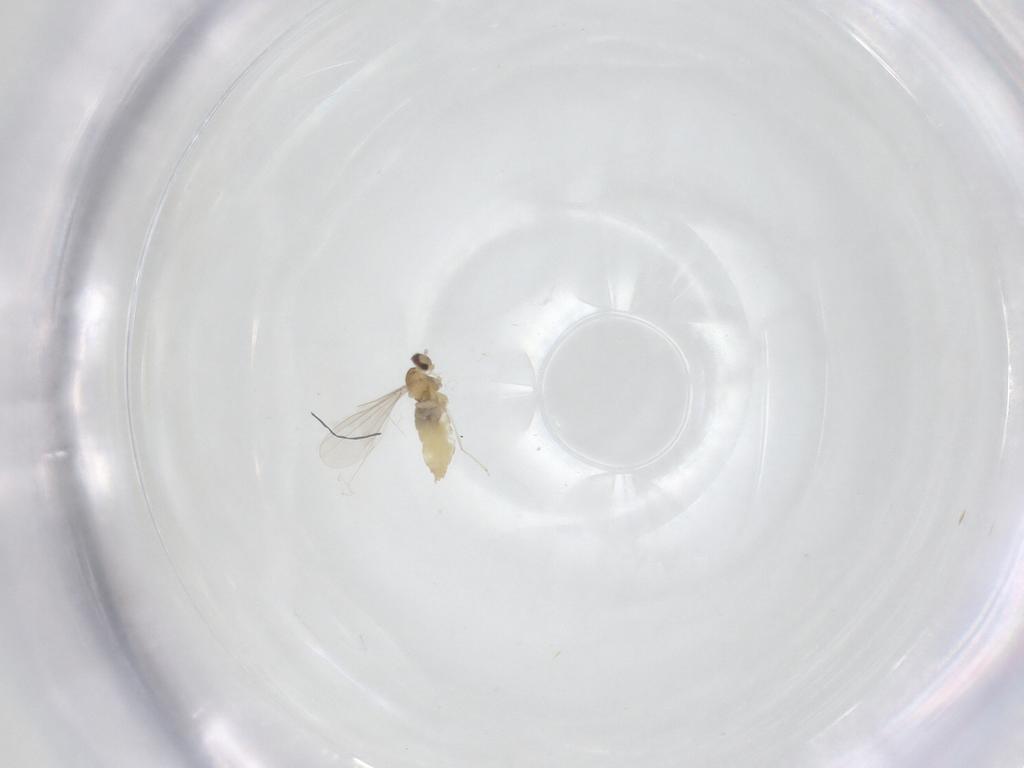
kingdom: Animalia
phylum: Arthropoda
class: Insecta
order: Diptera
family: Cecidomyiidae
